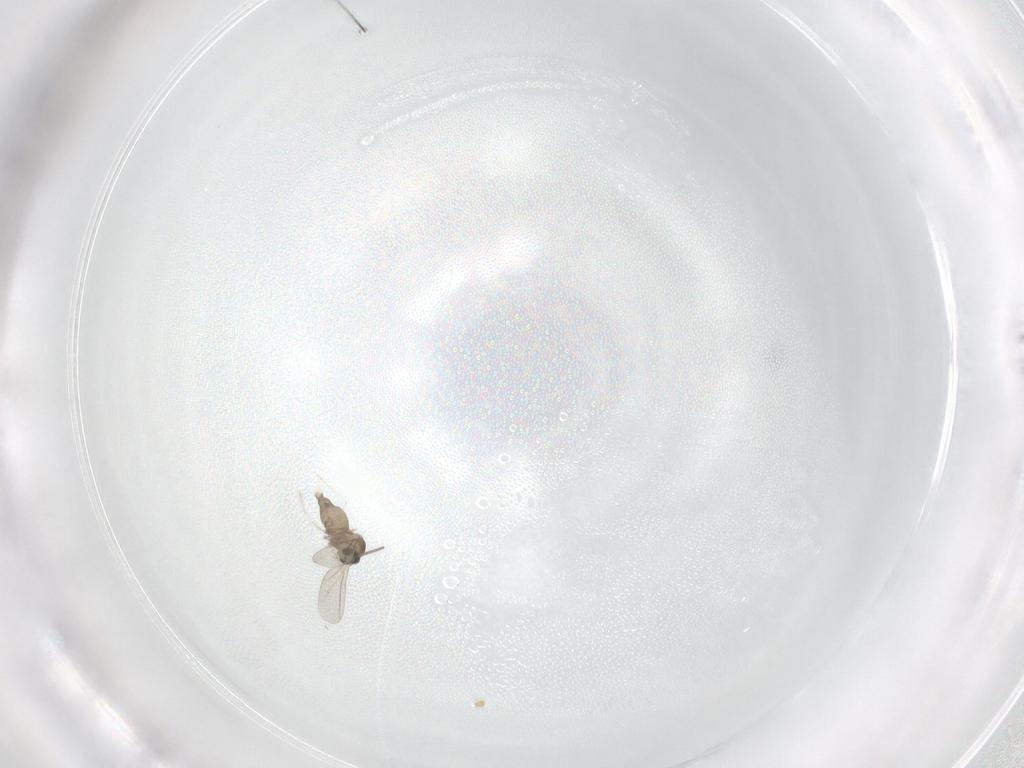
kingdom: Animalia
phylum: Arthropoda
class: Insecta
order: Diptera
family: Cecidomyiidae
